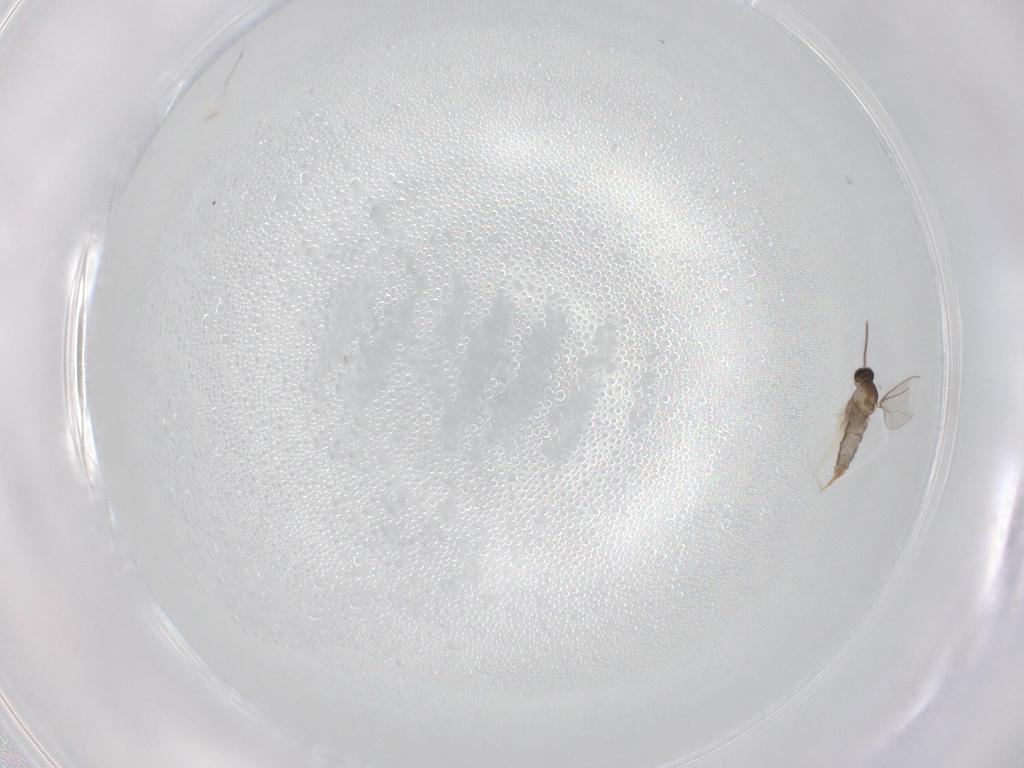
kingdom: Animalia
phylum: Arthropoda
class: Insecta
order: Diptera
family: Cecidomyiidae
